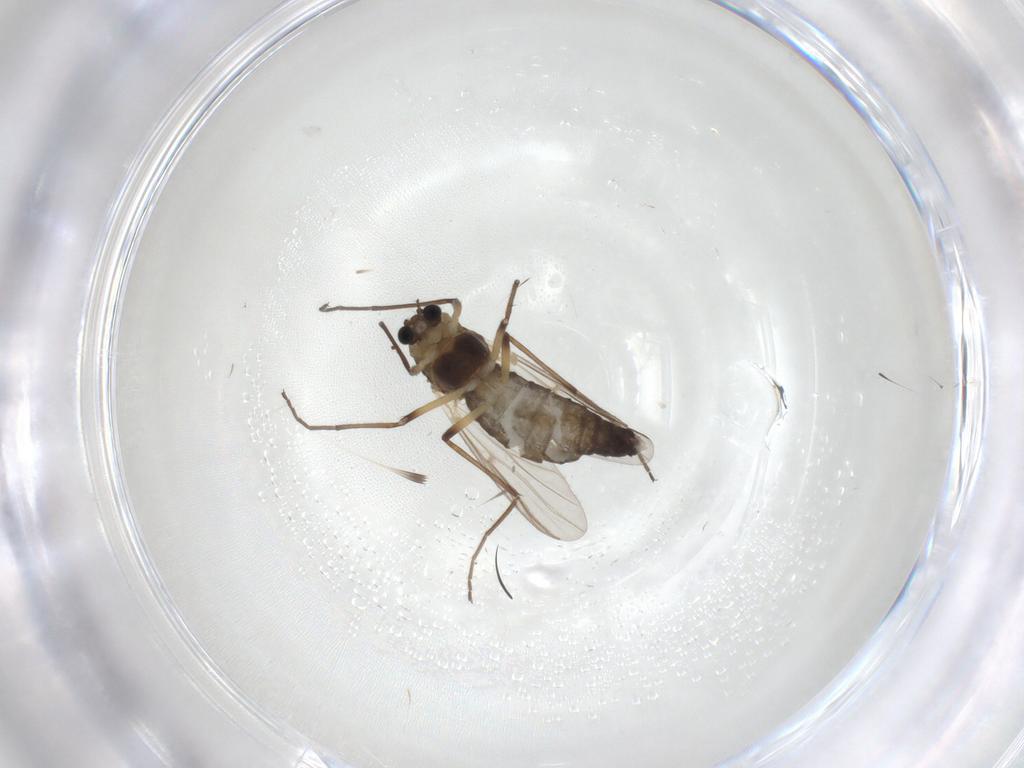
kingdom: Animalia
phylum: Arthropoda
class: Insecta
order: Diptera
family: Chironomidae
